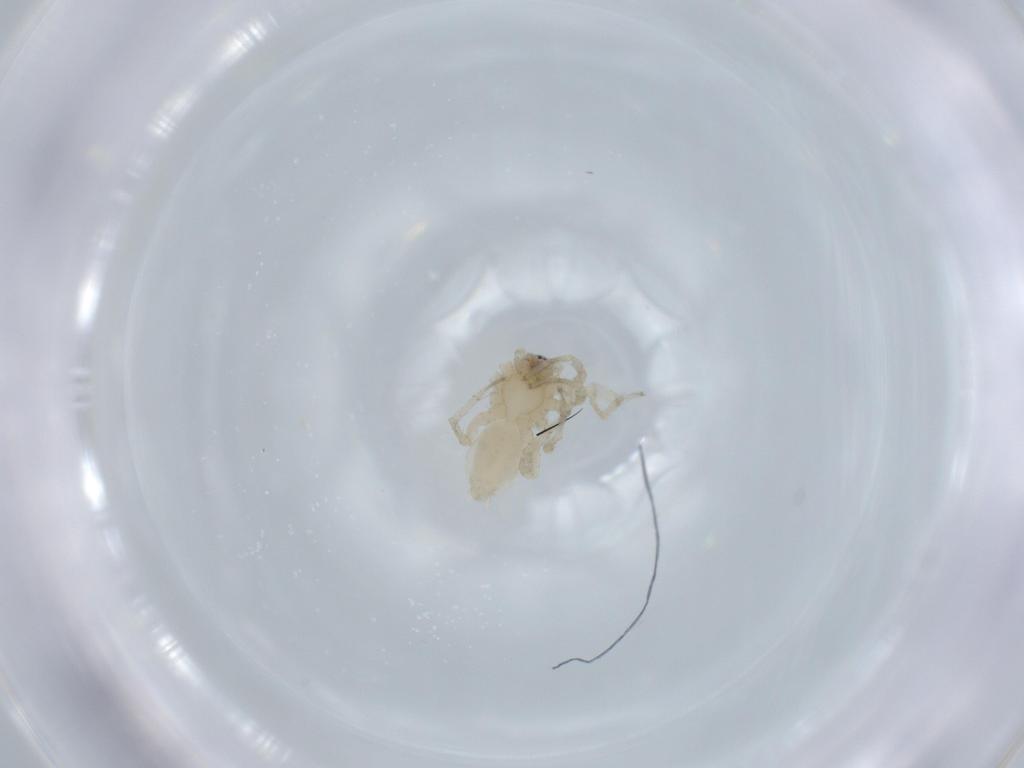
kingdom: Animalia
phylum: Arthropoda
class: Arachnida
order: Araneae
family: Amaurobiidae
